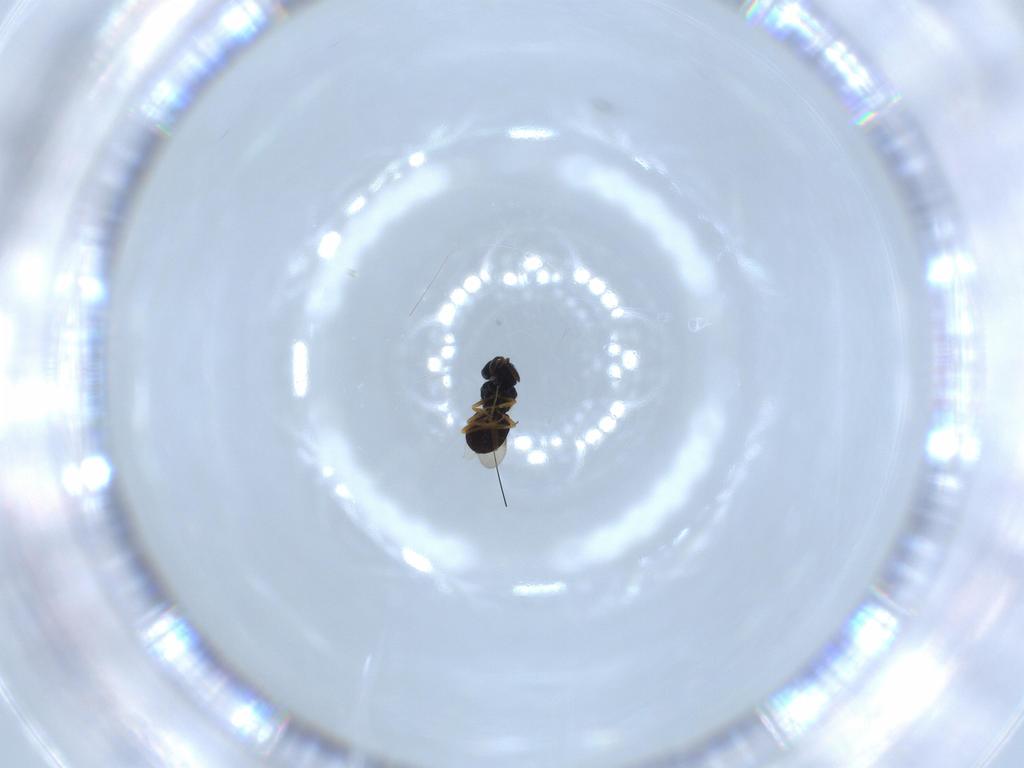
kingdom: Animalia
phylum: Arthropoda
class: Insecta
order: Hymenoptera
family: Scelionidae
